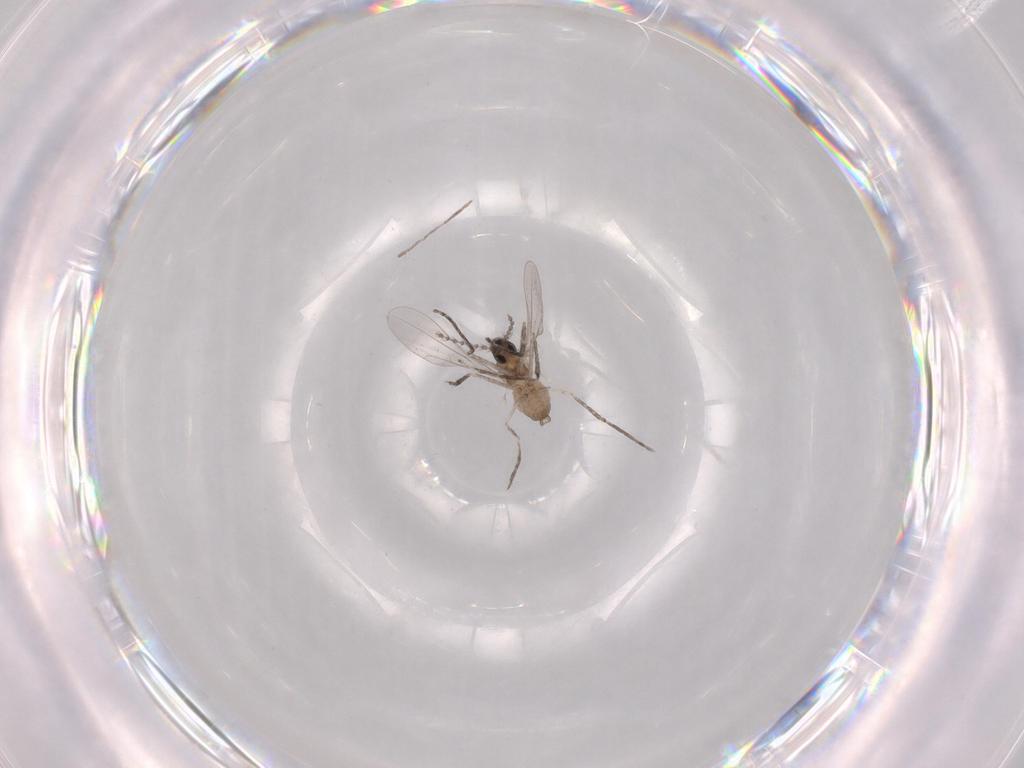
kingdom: Animalia
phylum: Arthropoda
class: Insecta
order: Diptera
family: Cecidomyiidae
